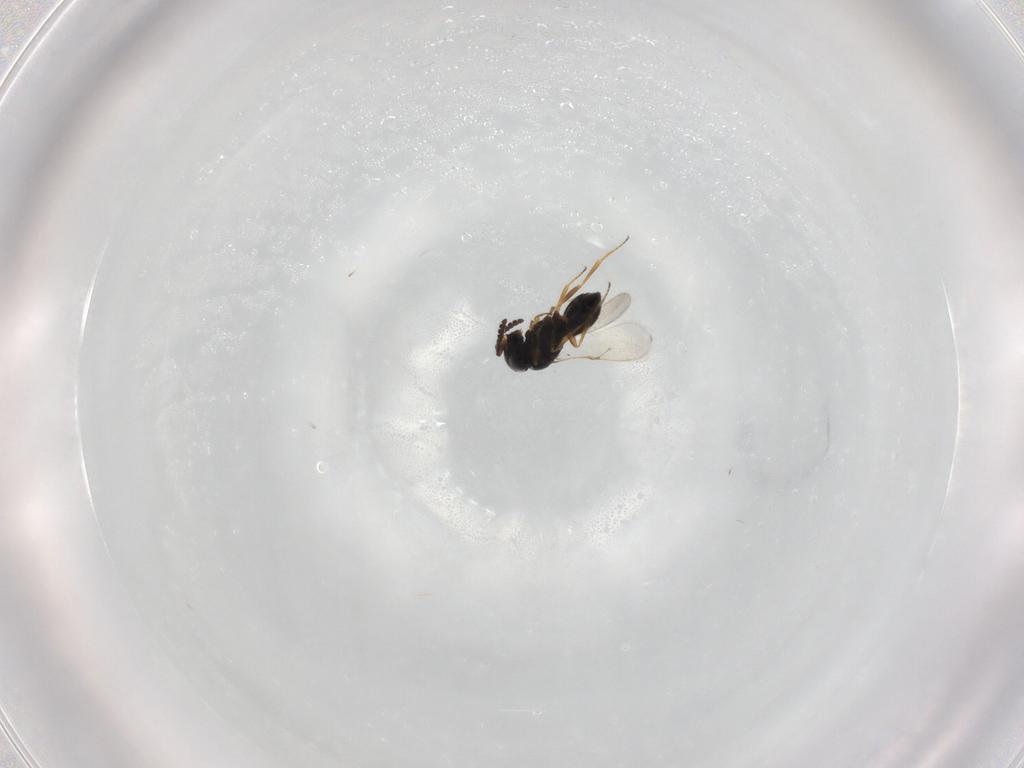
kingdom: Animalia
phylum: Arthropoda
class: Insecta
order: Hymenoptera
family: Scelionidae
